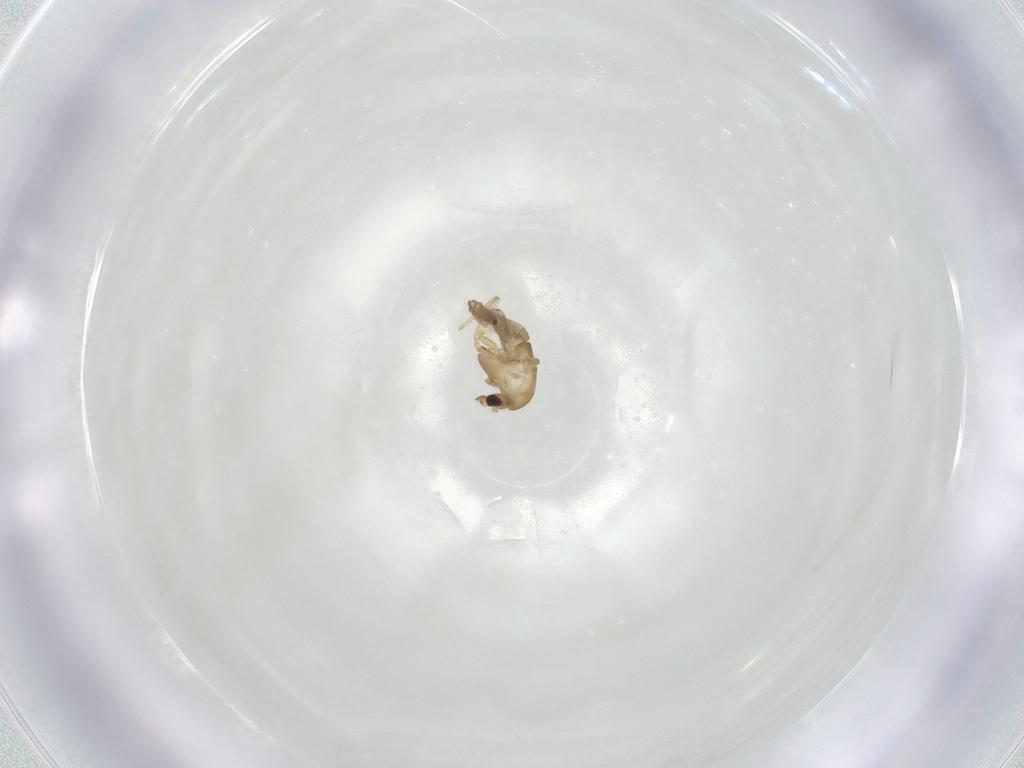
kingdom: Animalia
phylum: Arthropoda
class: Insecta
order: Diptera
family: Chironomidae
